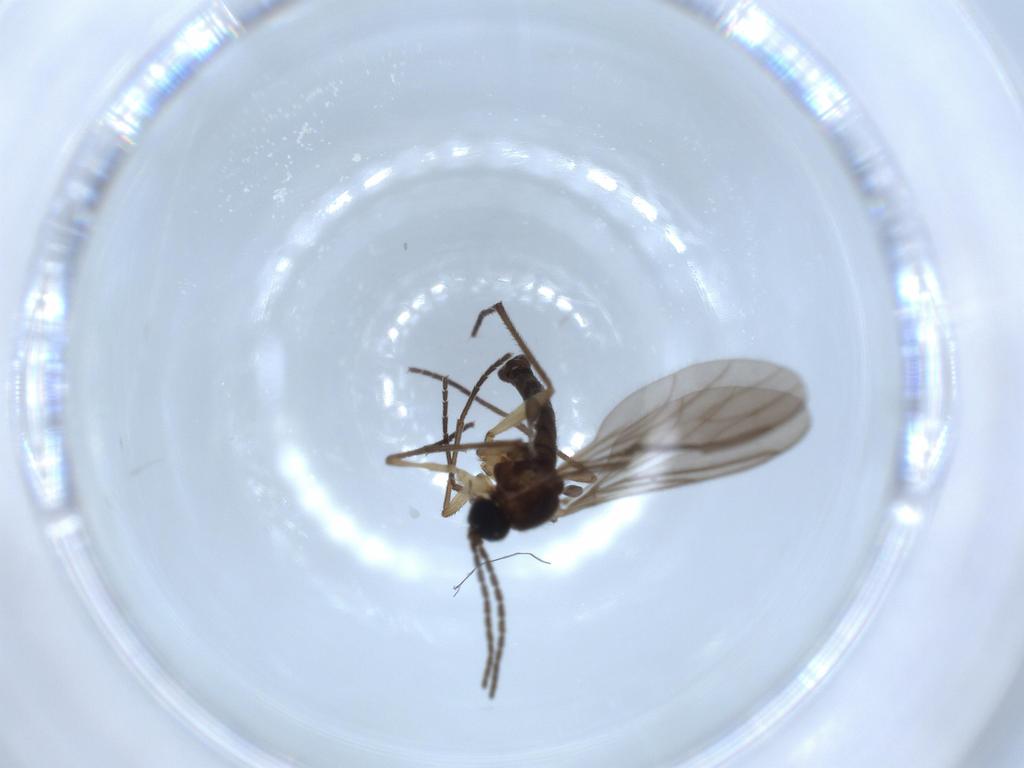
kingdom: Animalia
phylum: Arthropoda
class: Insecta
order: Diptera
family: Sciaridae
